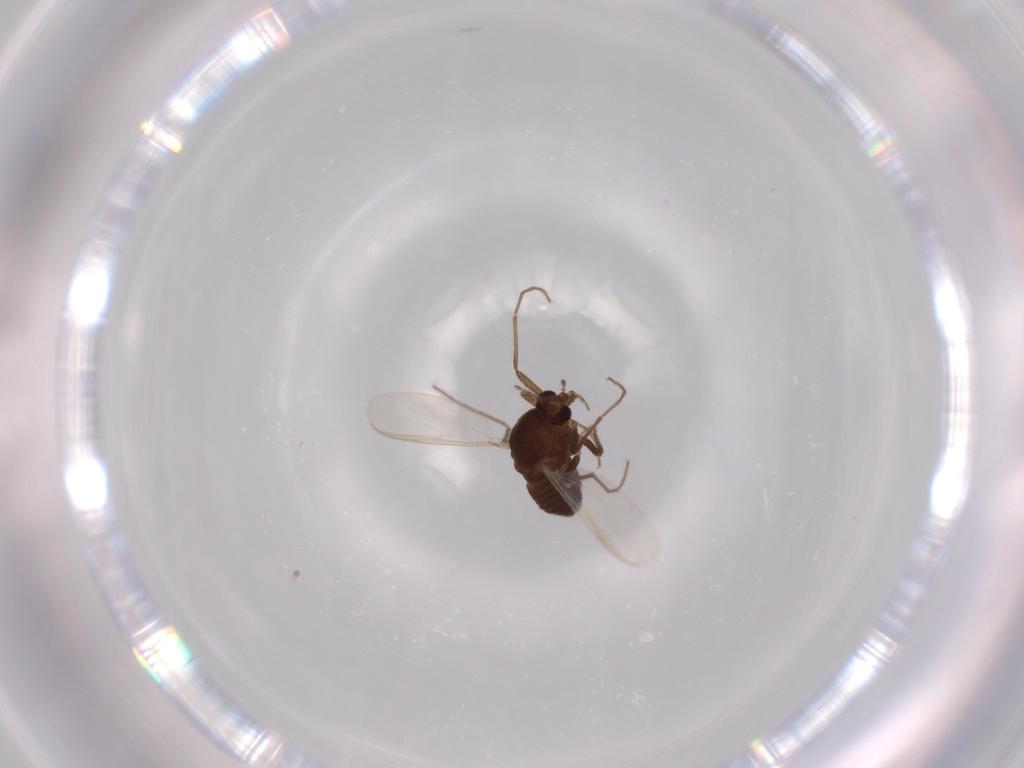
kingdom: Animalia
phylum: Arthropoda
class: Insecta
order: Diptera
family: Chironomidae
